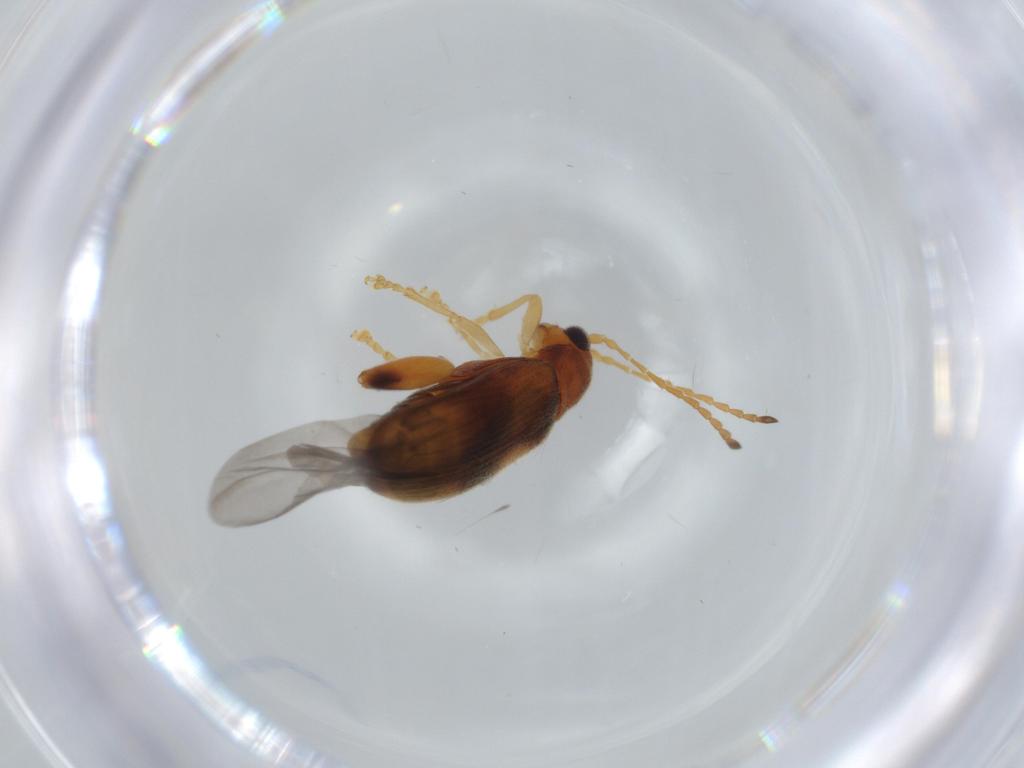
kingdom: Animalia
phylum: Arthropoda
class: Insecta
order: Coleoptera
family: Chrysomelidae
